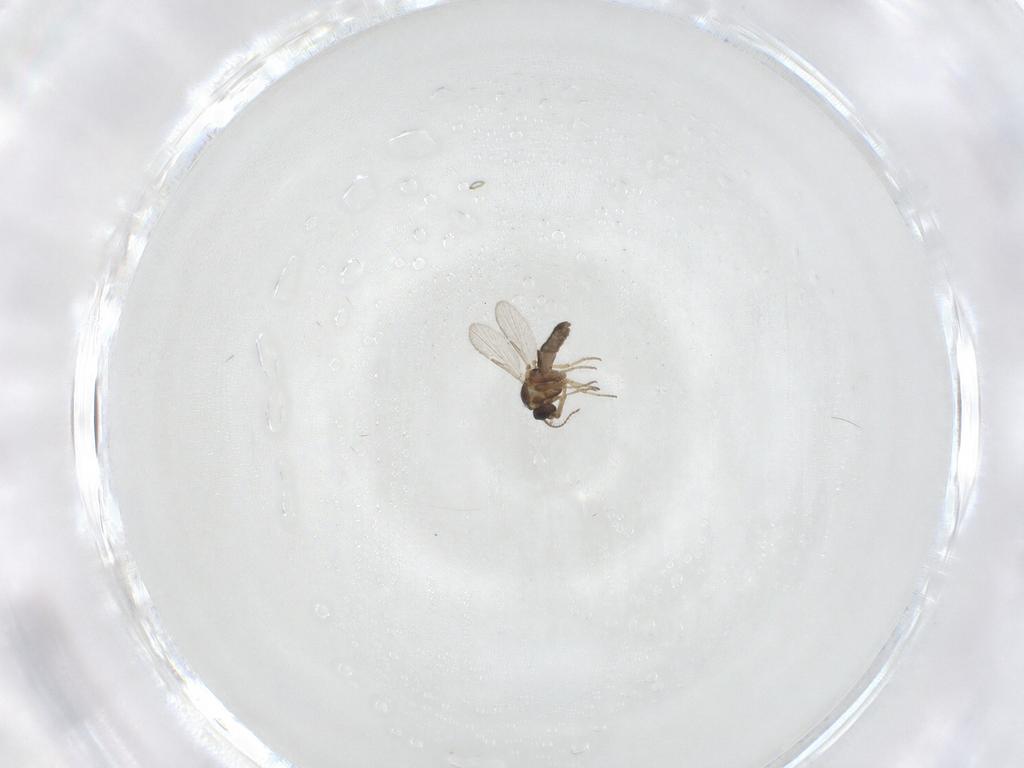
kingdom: Animalia
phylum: Arthropoda
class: Insecta
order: Diptera
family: Ceratopogonidae
